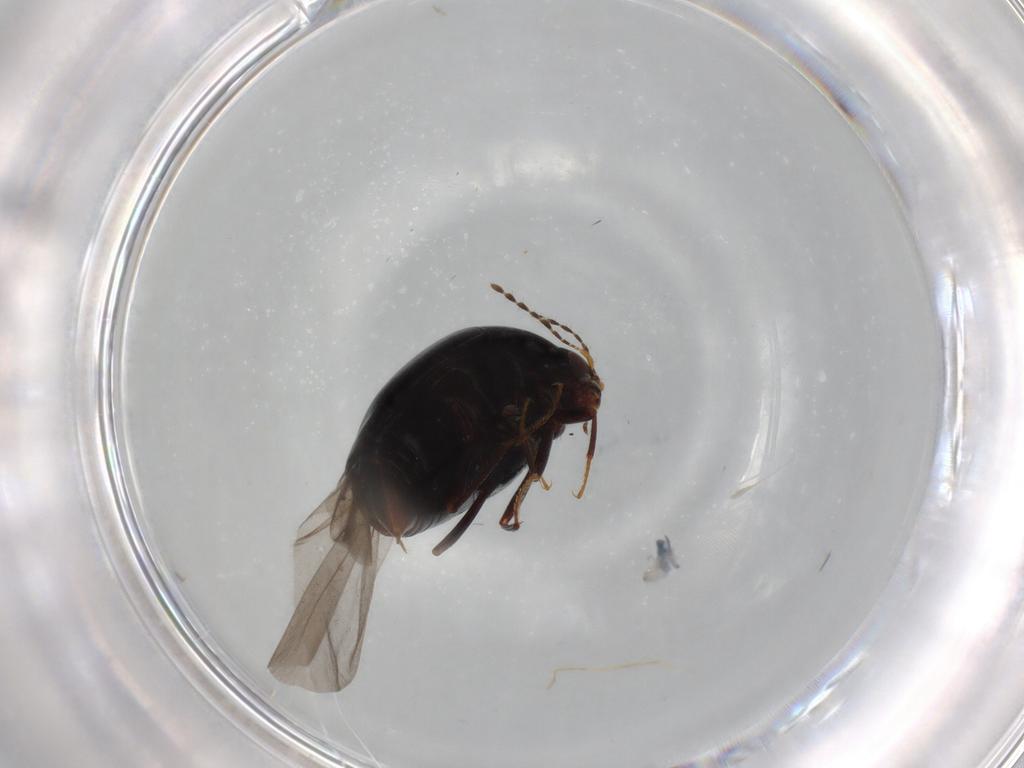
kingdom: Animalia
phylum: Arthropoda
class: Insecta
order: Coleoptera
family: Staphylinidae
